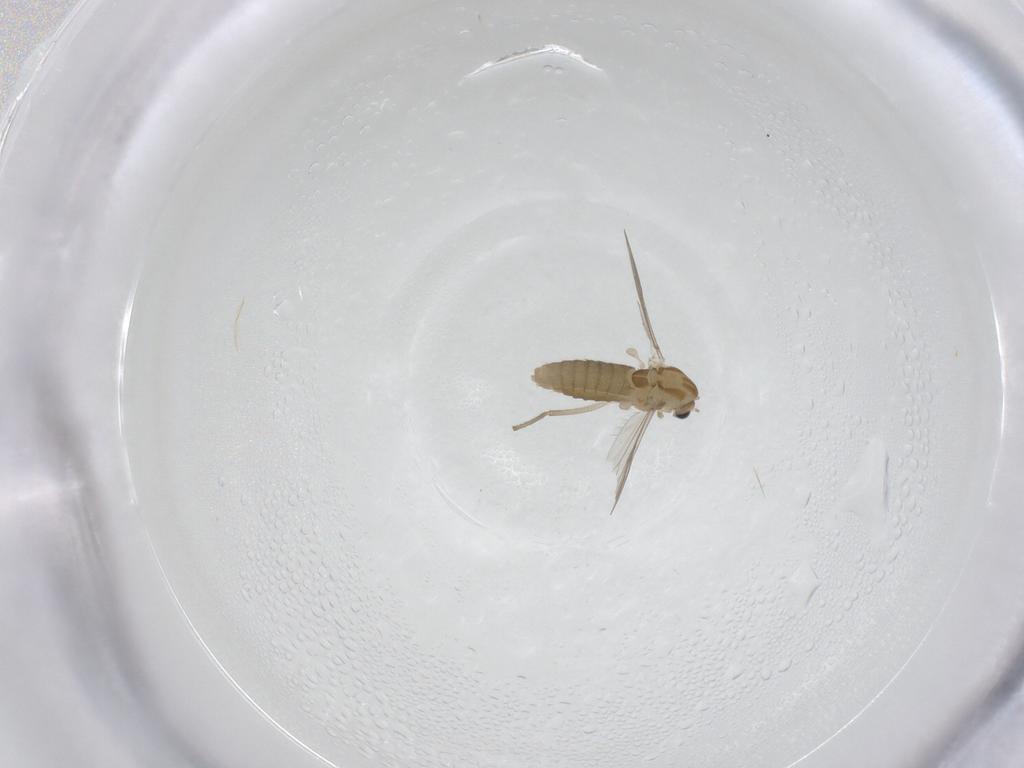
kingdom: Animalia
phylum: Arthropoda
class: Insecta
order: Diptera
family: Chironomidae
